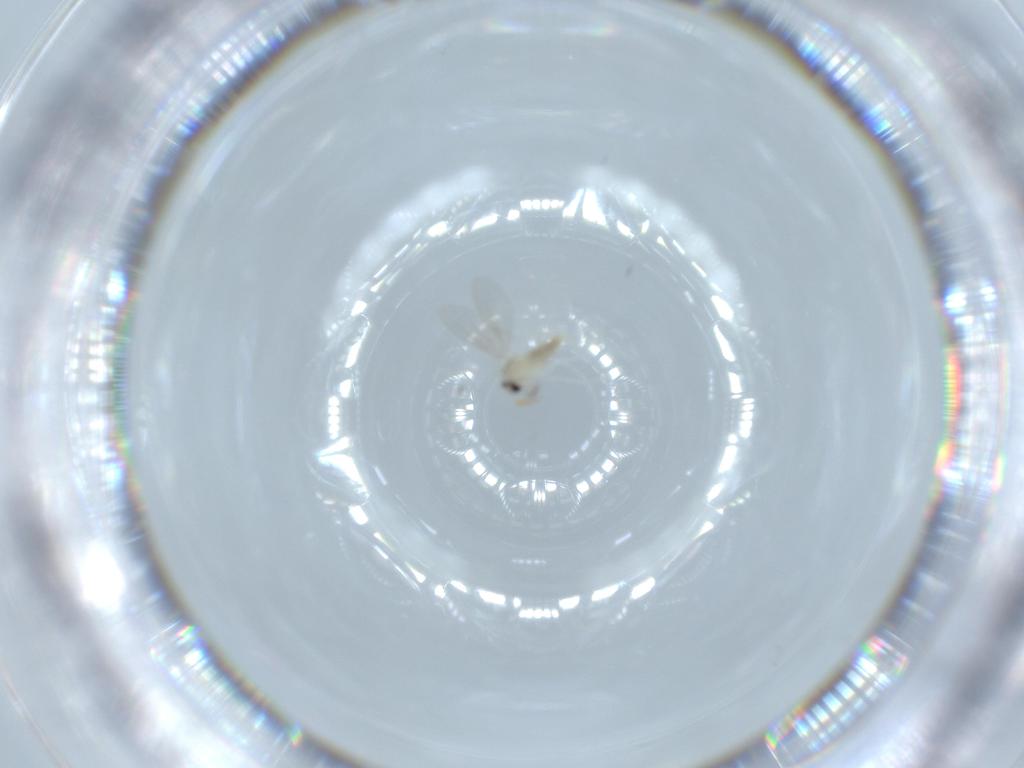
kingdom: Animalia
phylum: Arthropoda
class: Insecta
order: Diptera
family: Cecidomyiidae
